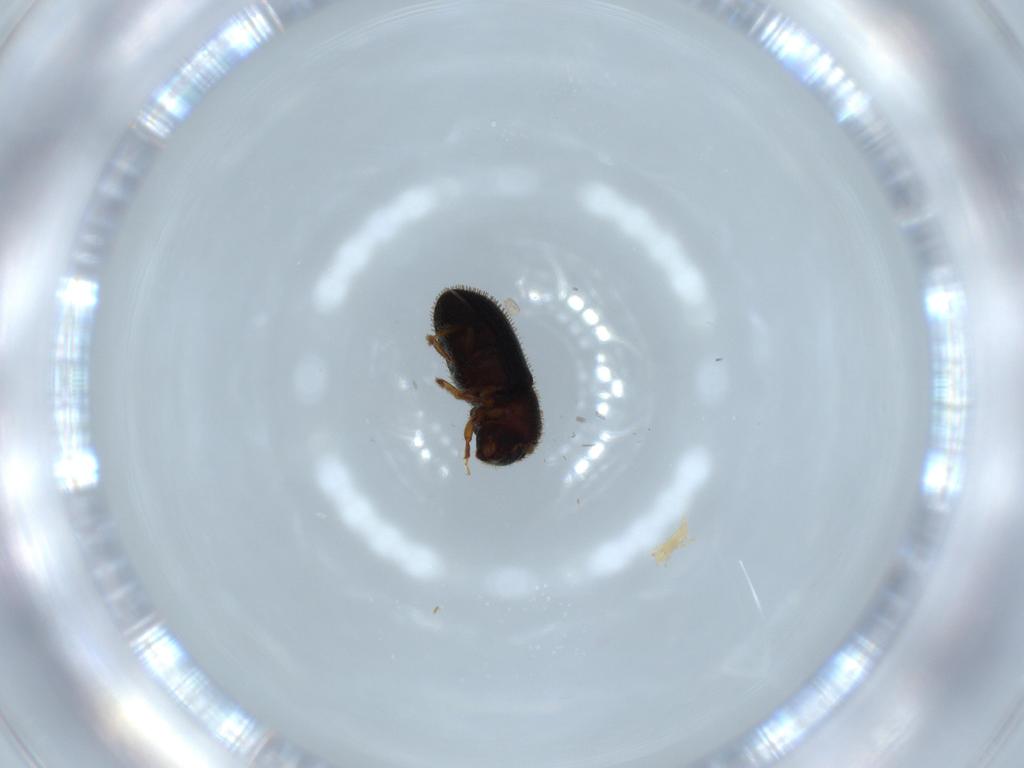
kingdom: Animalia
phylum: Arthropoda
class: Insecta
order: Coleoptera
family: Curculionidae
